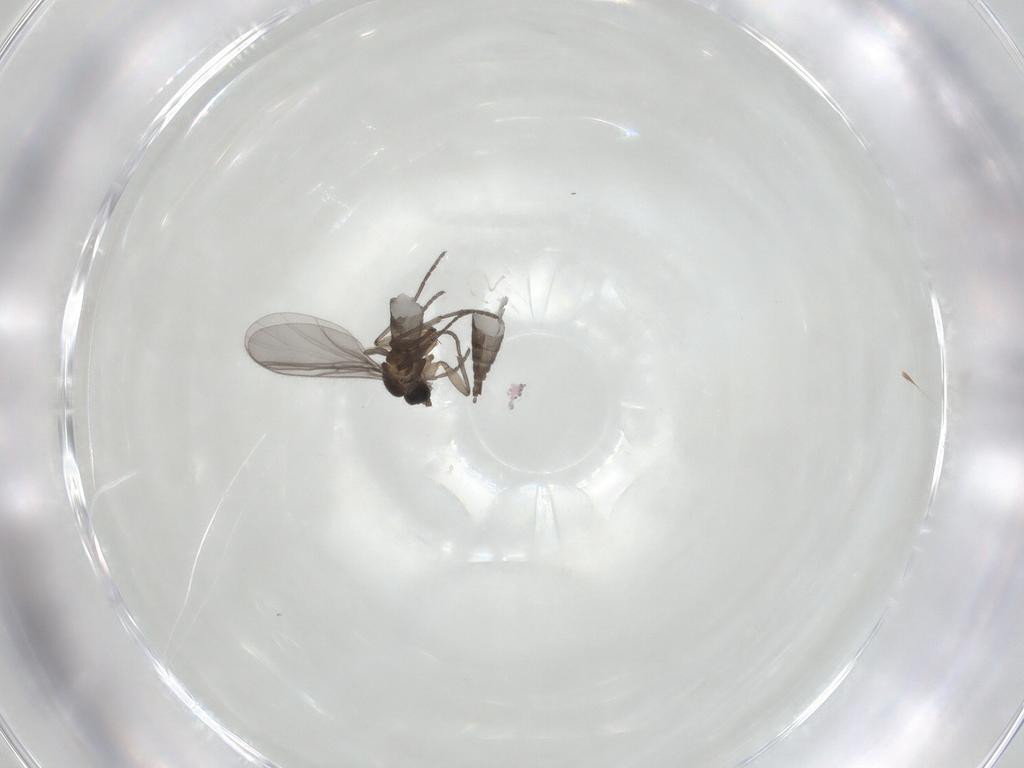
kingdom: Animalia
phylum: Arthropoda
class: Insecta
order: Diptera
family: Sciaridae
